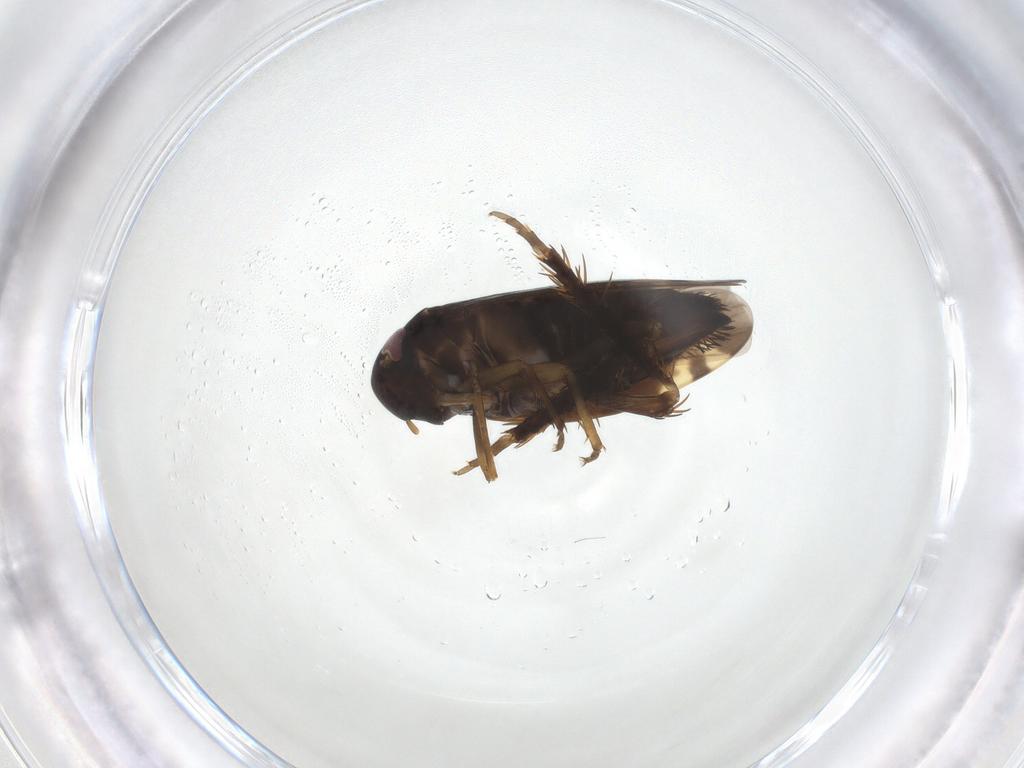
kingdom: Animalia
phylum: Arthropoda
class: Insecta
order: Hemiptera
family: Cicadellidae
